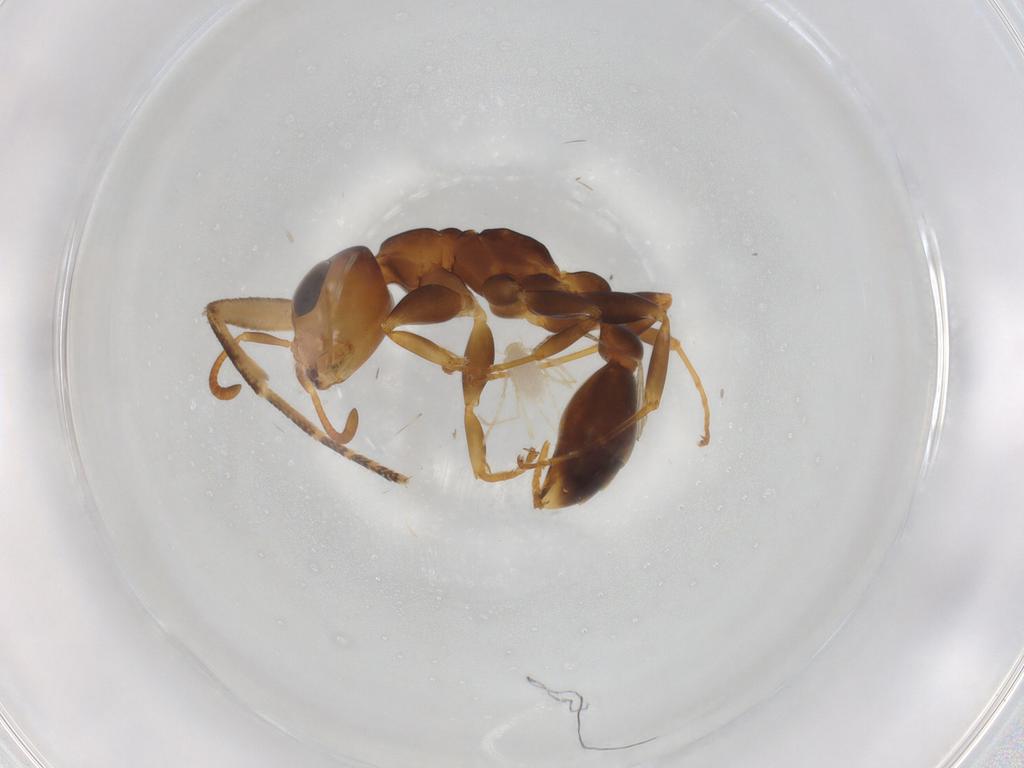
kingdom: Animalia
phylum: Arthropoda
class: Insecta
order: Hymenoptera
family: Formicidae
